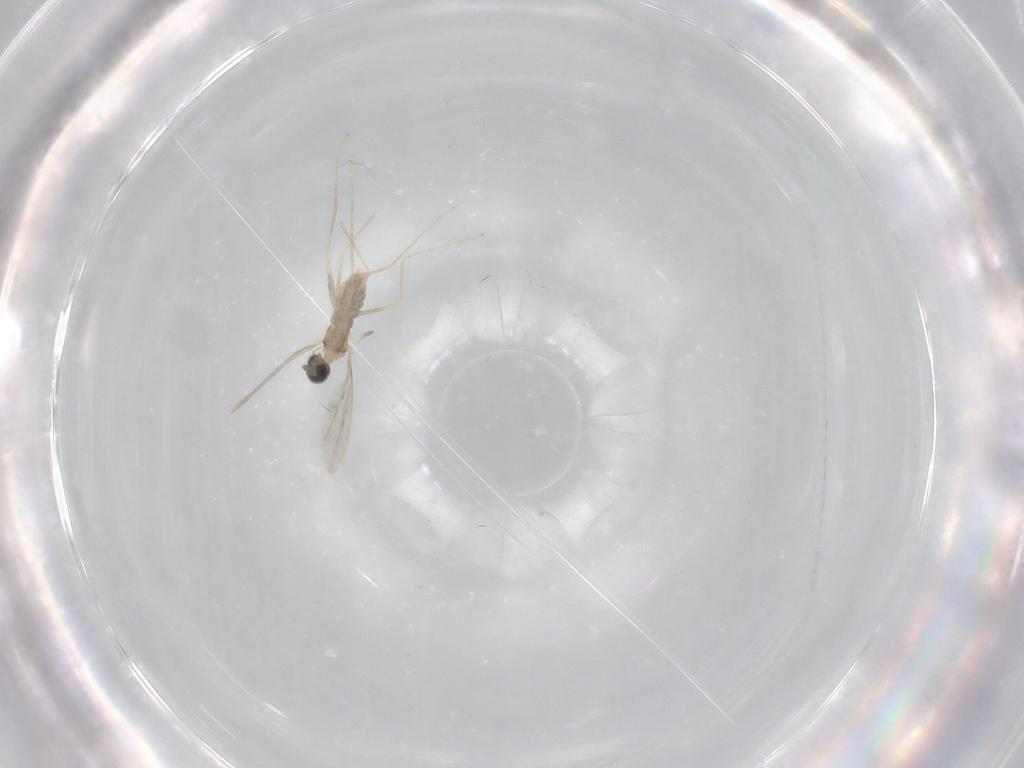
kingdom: Animalia
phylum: Arthropoda
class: Insecta
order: Diptera
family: Cecidomyiidae
